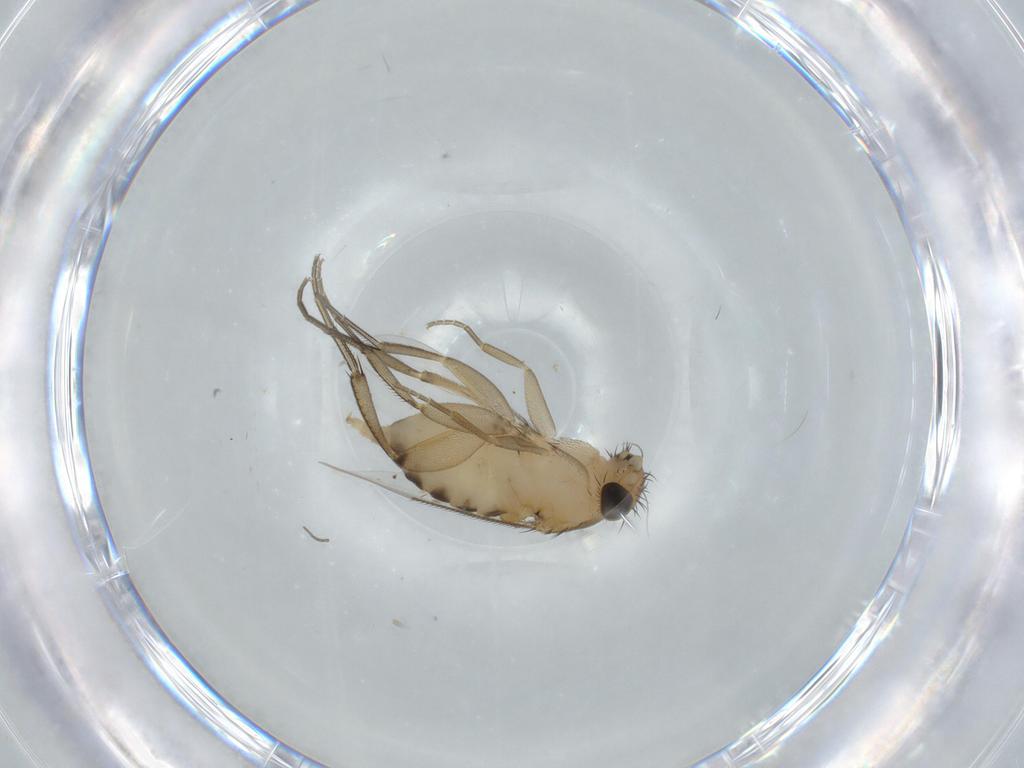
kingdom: Animalia
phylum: Arthropoda
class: Insecta
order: Diptera
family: Cecidomyiidae
